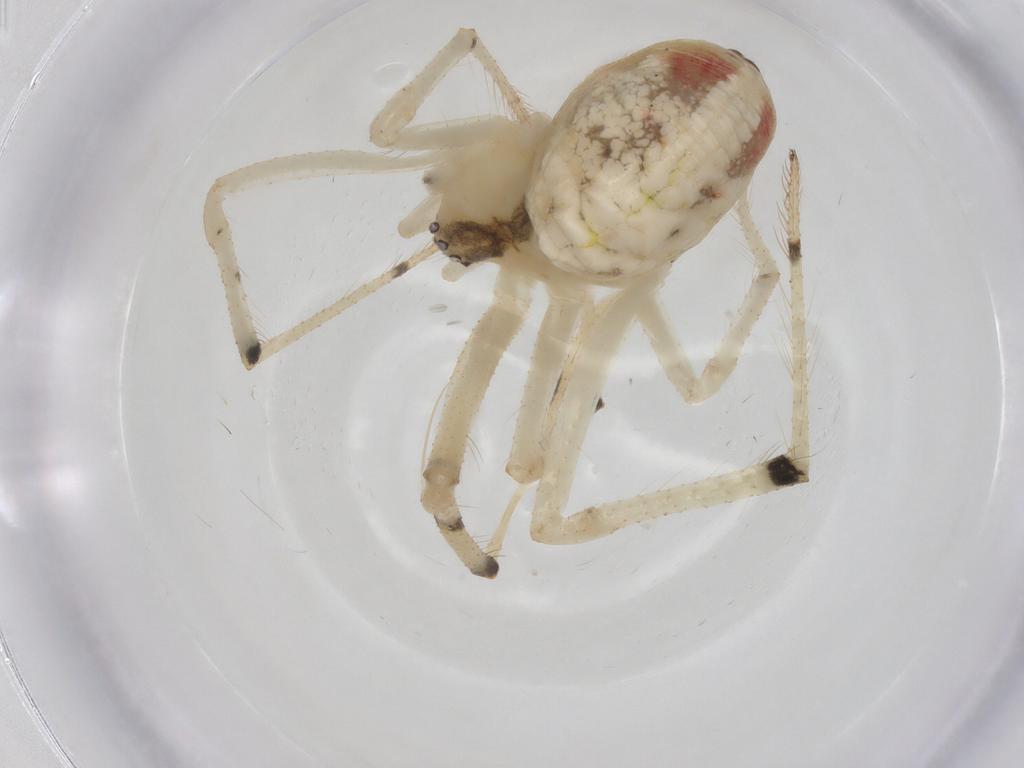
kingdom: Animalia
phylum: Arthropoda
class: Arachnida
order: Araneae
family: Theridiidae
